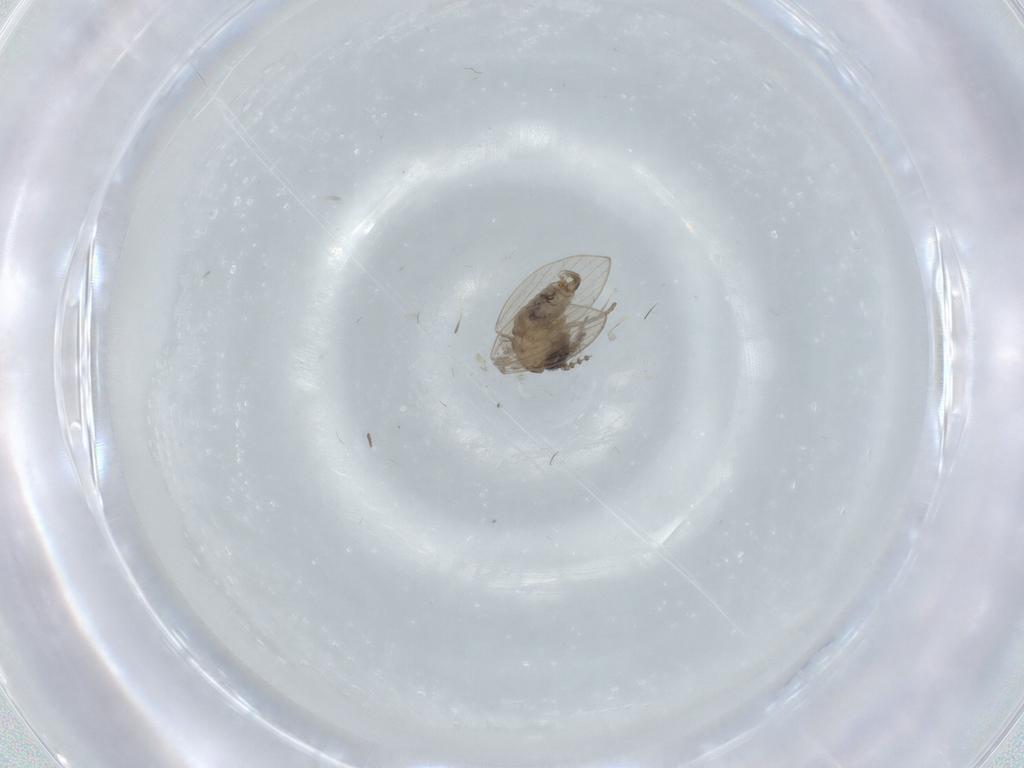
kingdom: Animalia
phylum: Arthropoda
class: Insecta
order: Diptera
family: Psychodidae
